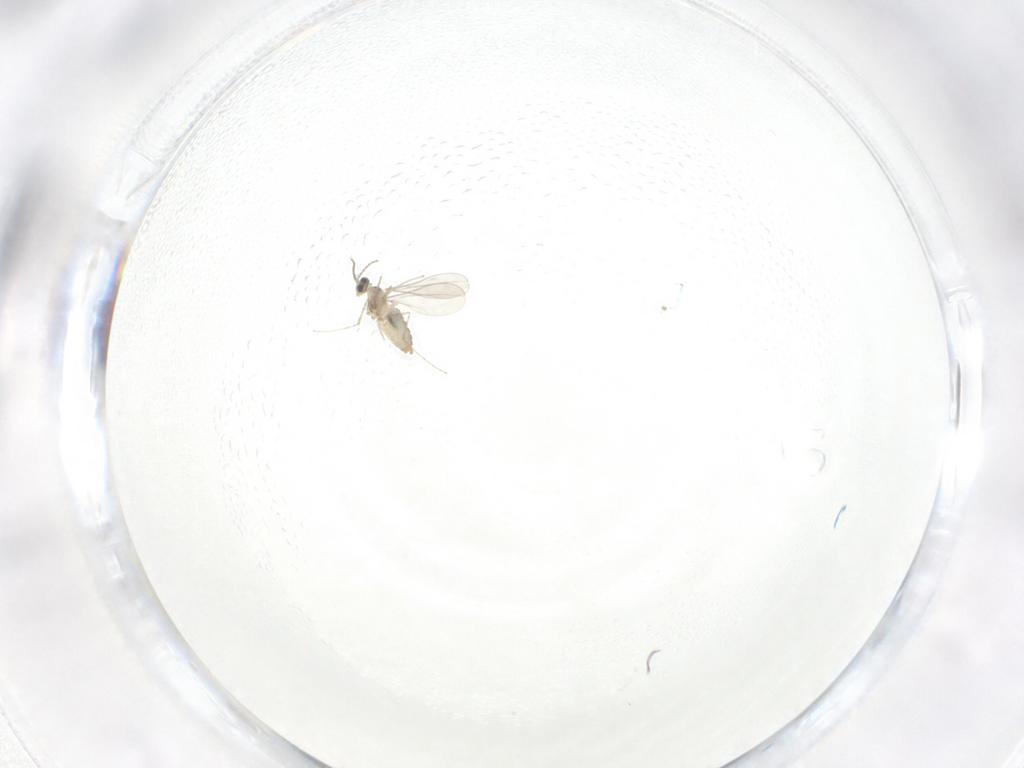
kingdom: Animalia
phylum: Arthropoda
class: Insecta
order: Diptera
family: Cecidomyiidae
